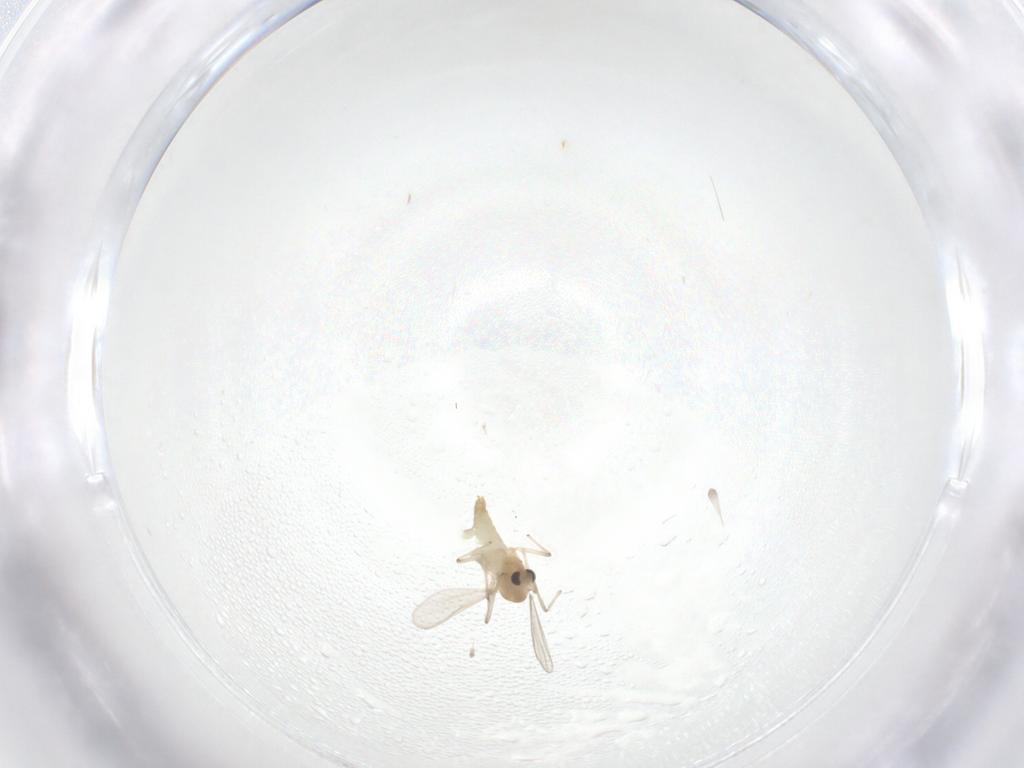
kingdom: Animalia
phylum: Arthropoda
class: Insecta
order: Diptera
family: Chironomidae
